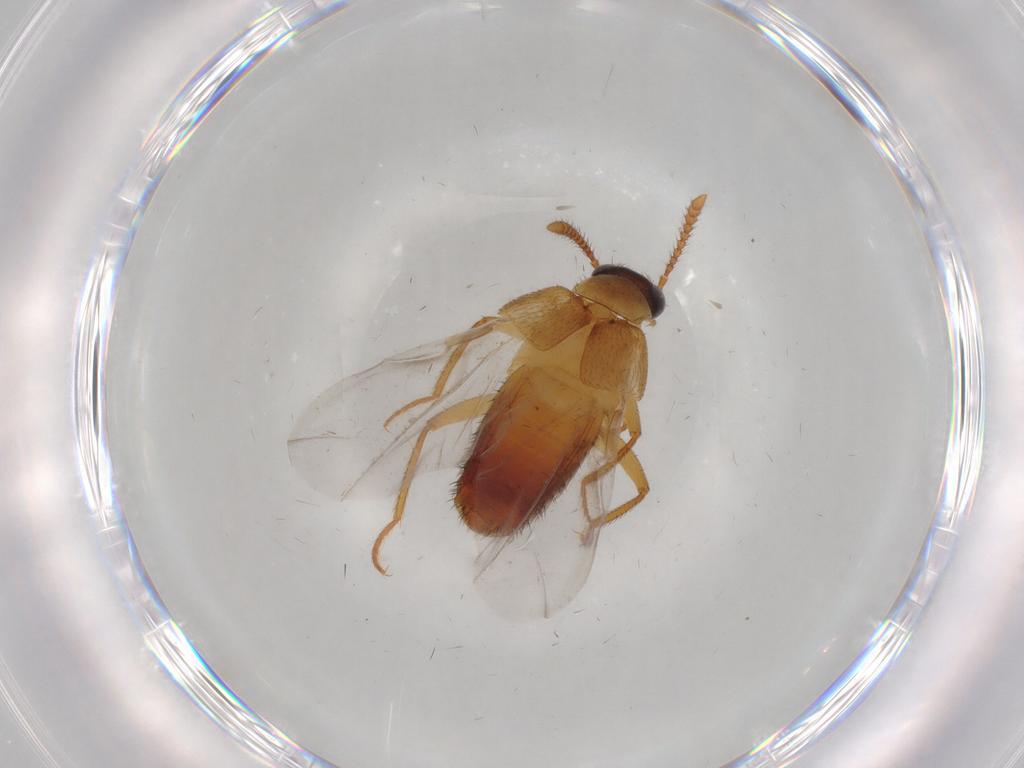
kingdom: Animalia
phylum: Arthropoda
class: Insecta
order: Coleoptera
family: Staphylinidae
